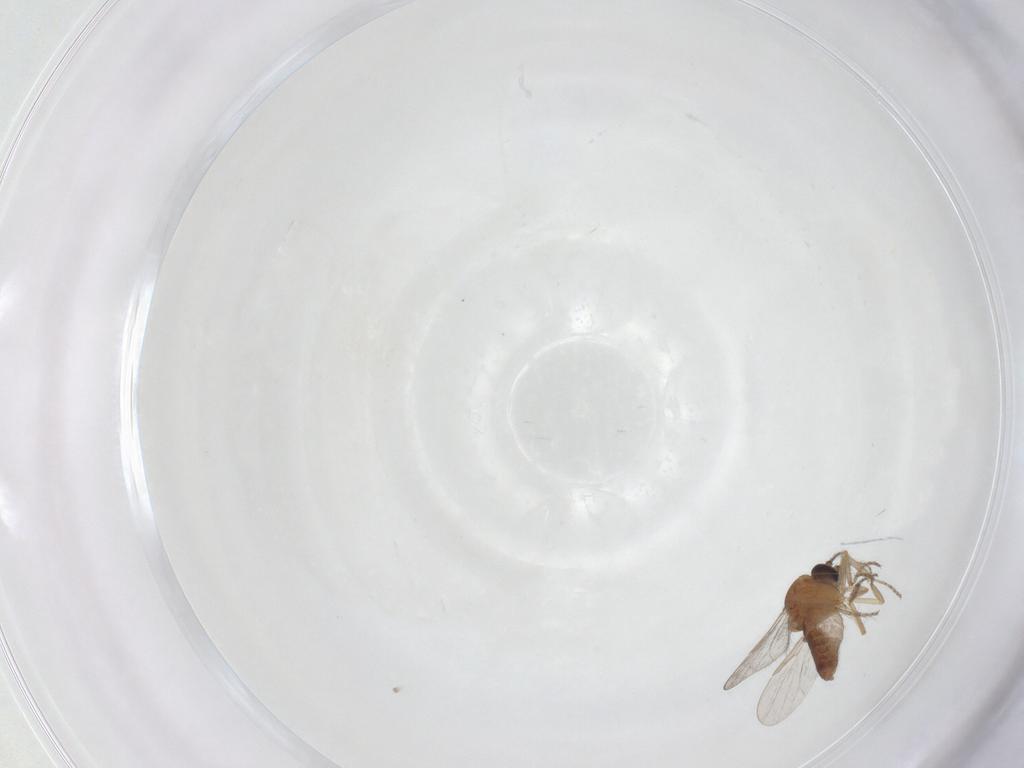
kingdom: Animalia
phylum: Arthropoda
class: Insecta
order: Diptera
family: Ceratopogonidae
